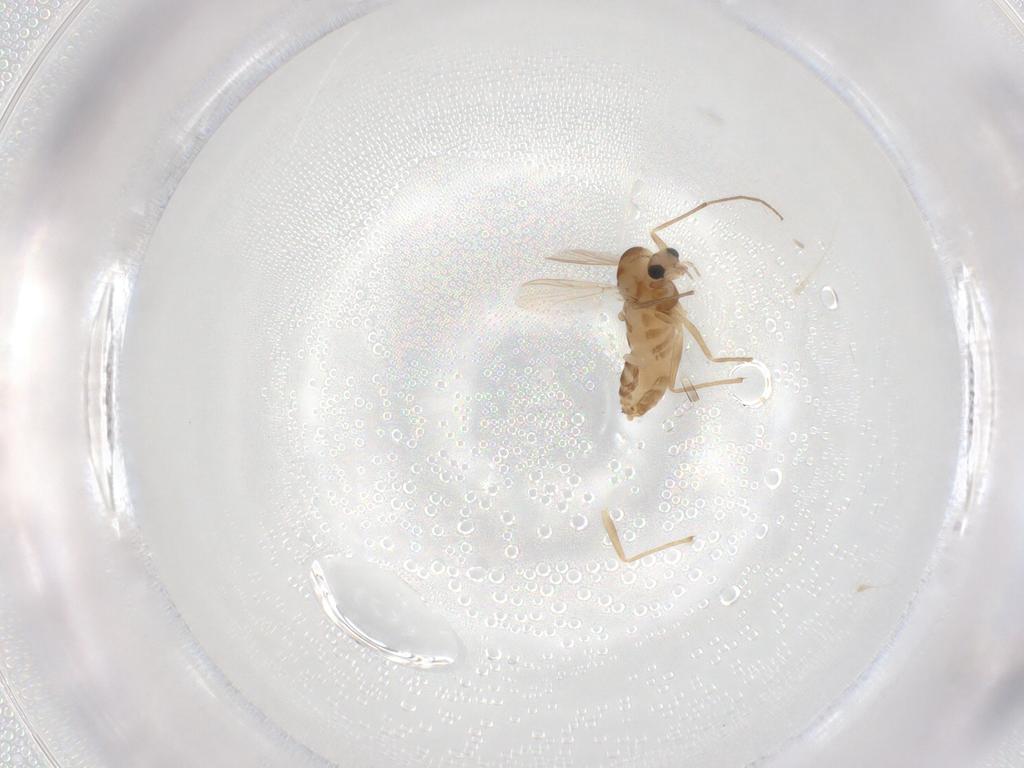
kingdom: Animalia
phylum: Arthropoda
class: Insecta
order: Diptera
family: Chironomidae
